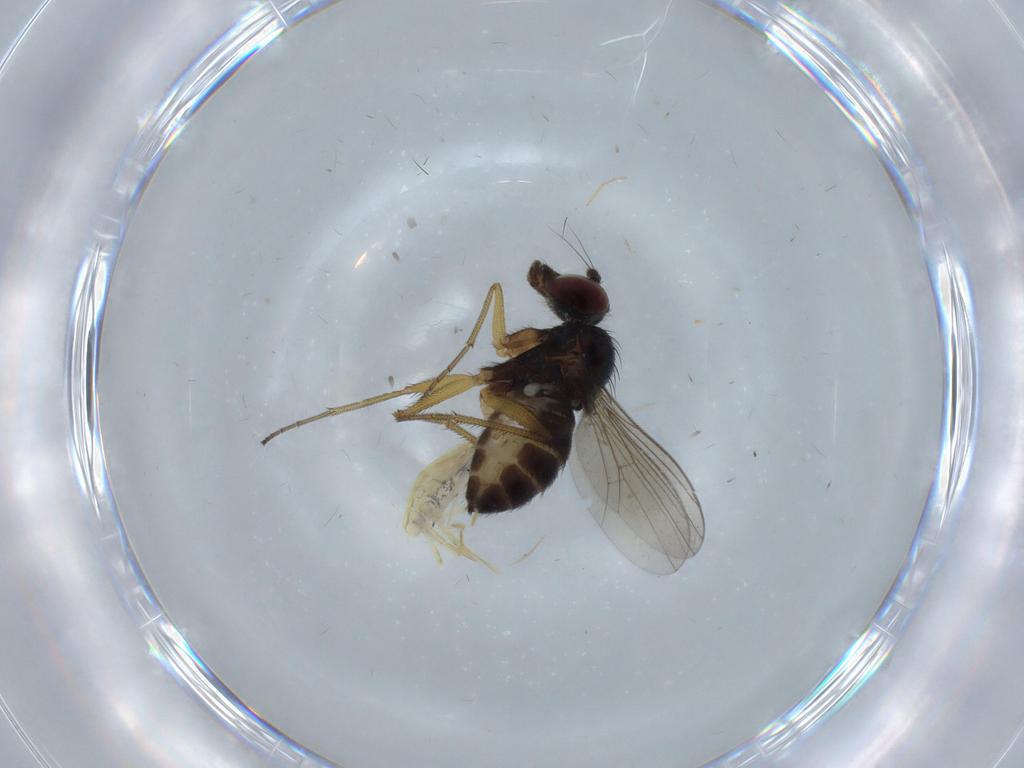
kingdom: Animalia
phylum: Arthropoda
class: Insecta
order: Diptera
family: Dolichopodidae
